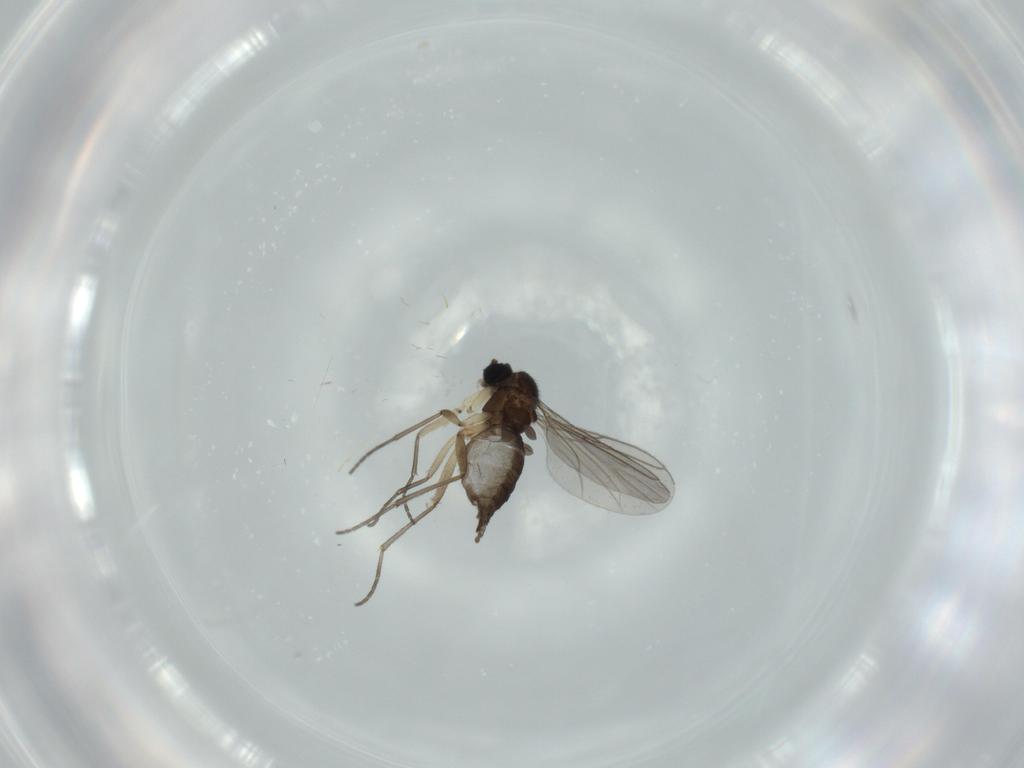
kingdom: Animalia
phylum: Arthropoda
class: Insecta
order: Diptera
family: Sciaridae
